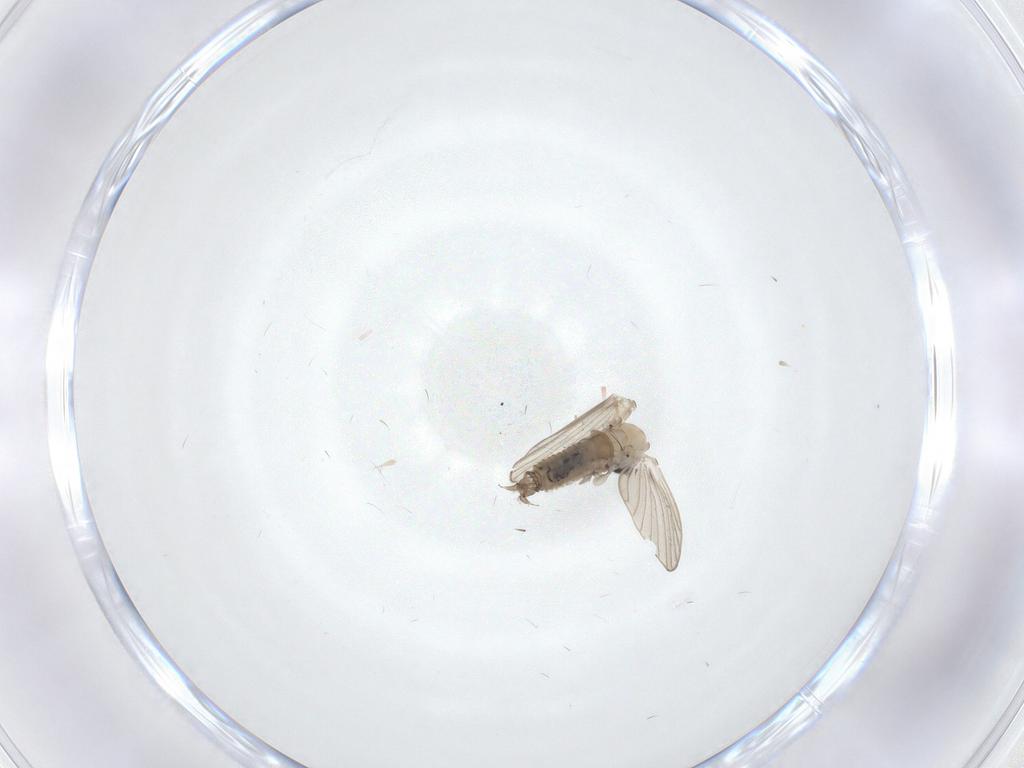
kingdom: Animalia
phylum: Arthropoda
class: Insecta
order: Diptera
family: Psychodidae
